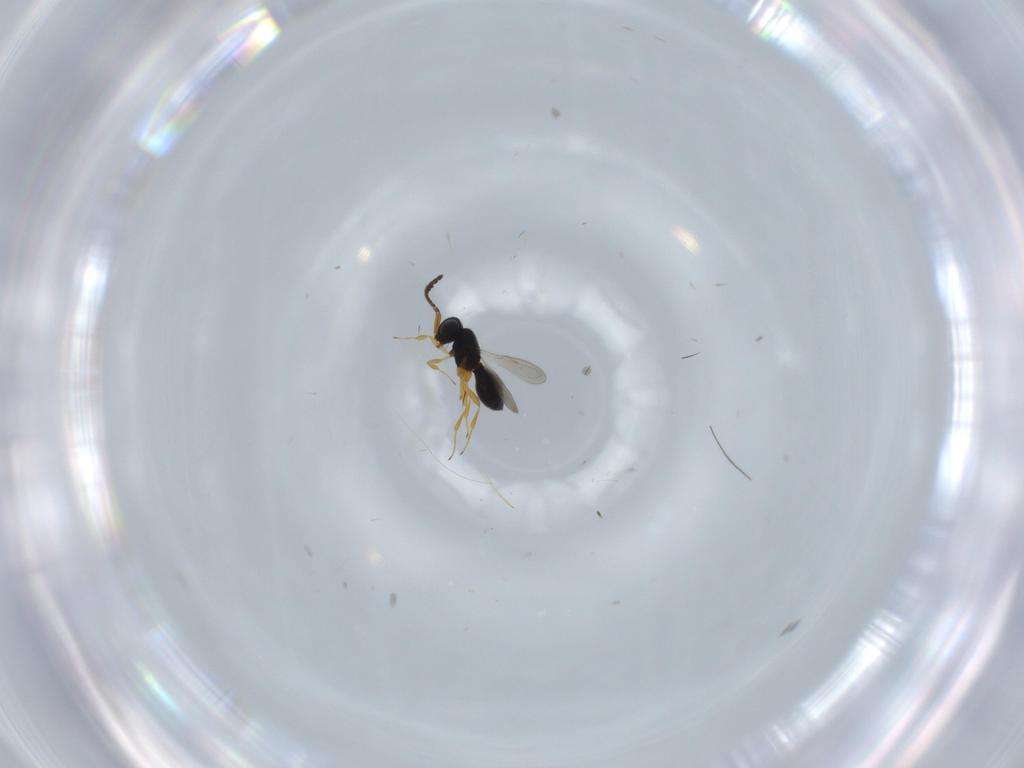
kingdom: Animalia
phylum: Arthropoda
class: Insecta
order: Hymenoptera
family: Scelionidae
